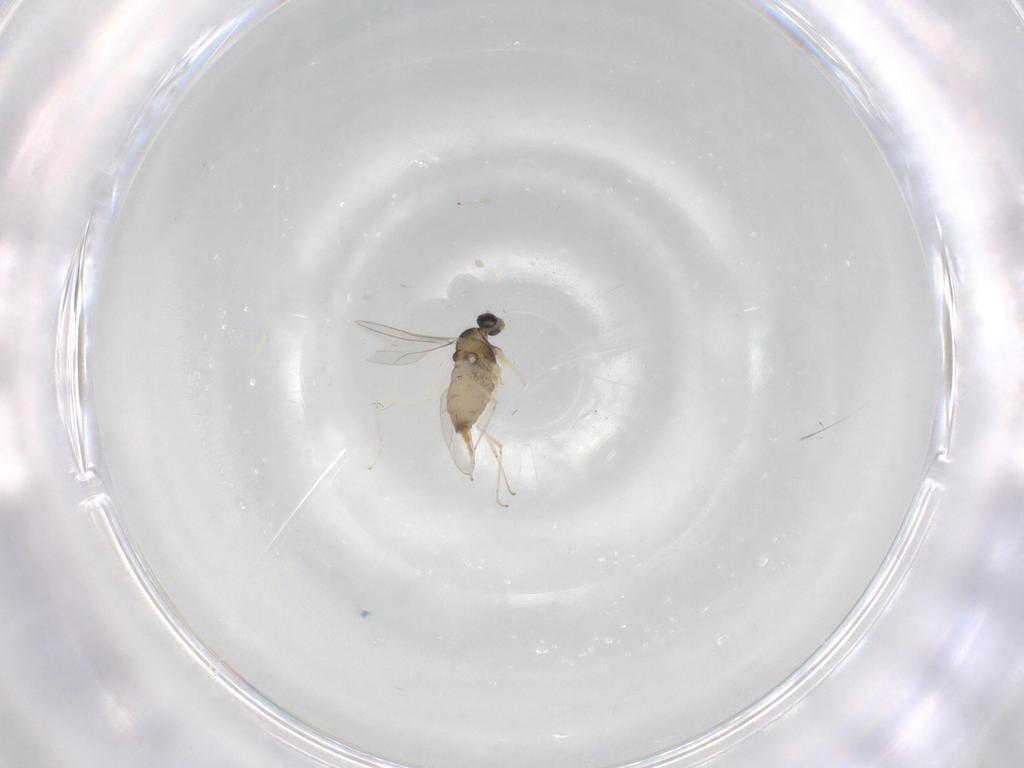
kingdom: Animalia
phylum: Arthropoda
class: Insecta
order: Diptera
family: Cecidomyiidae
